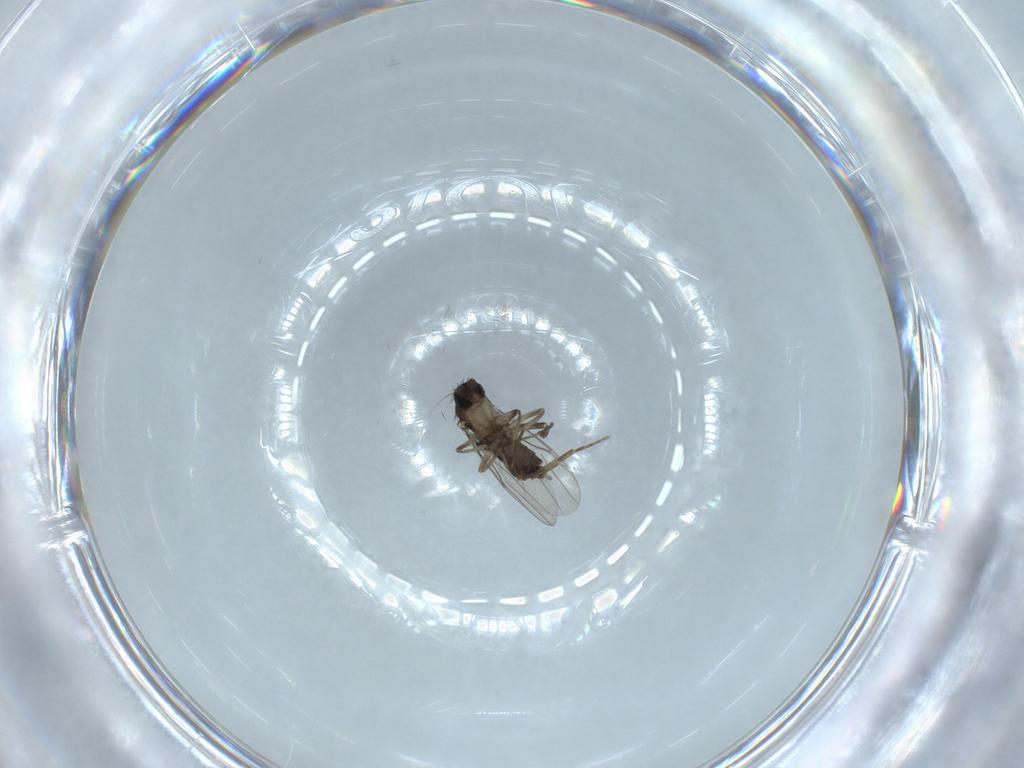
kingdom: Animalia
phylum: Arthropoda
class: Insecta
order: Diptera
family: Phoridae
